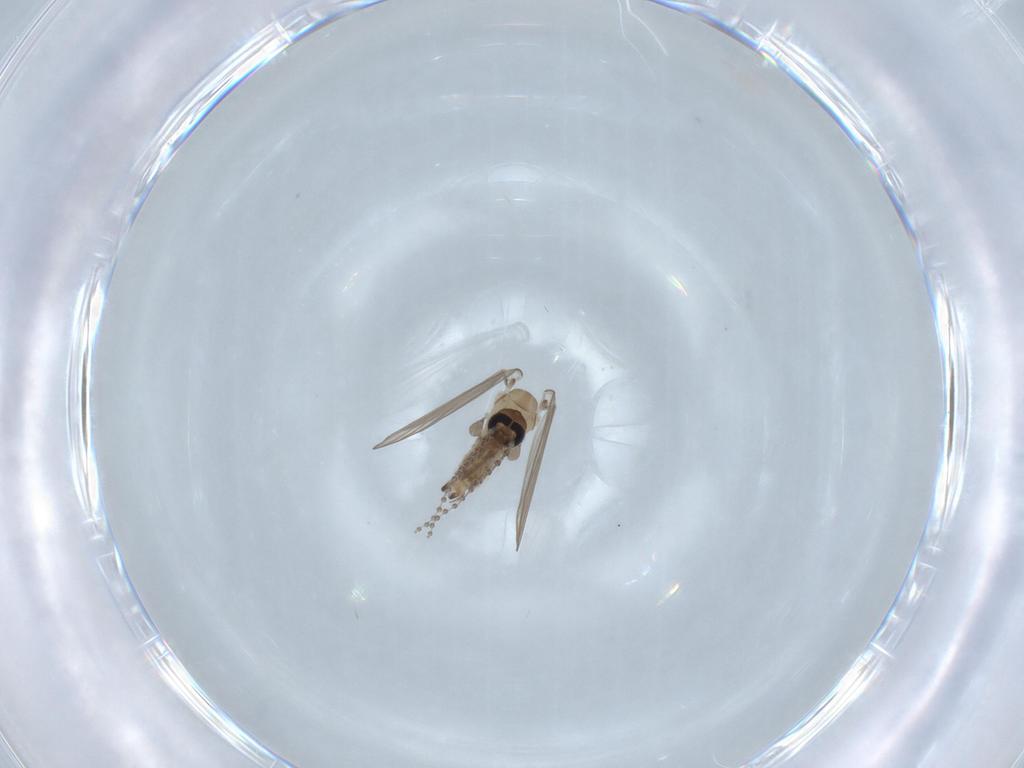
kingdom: Animalia
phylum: Arthropoda
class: Insecta
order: Diptera
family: Psychodidae
